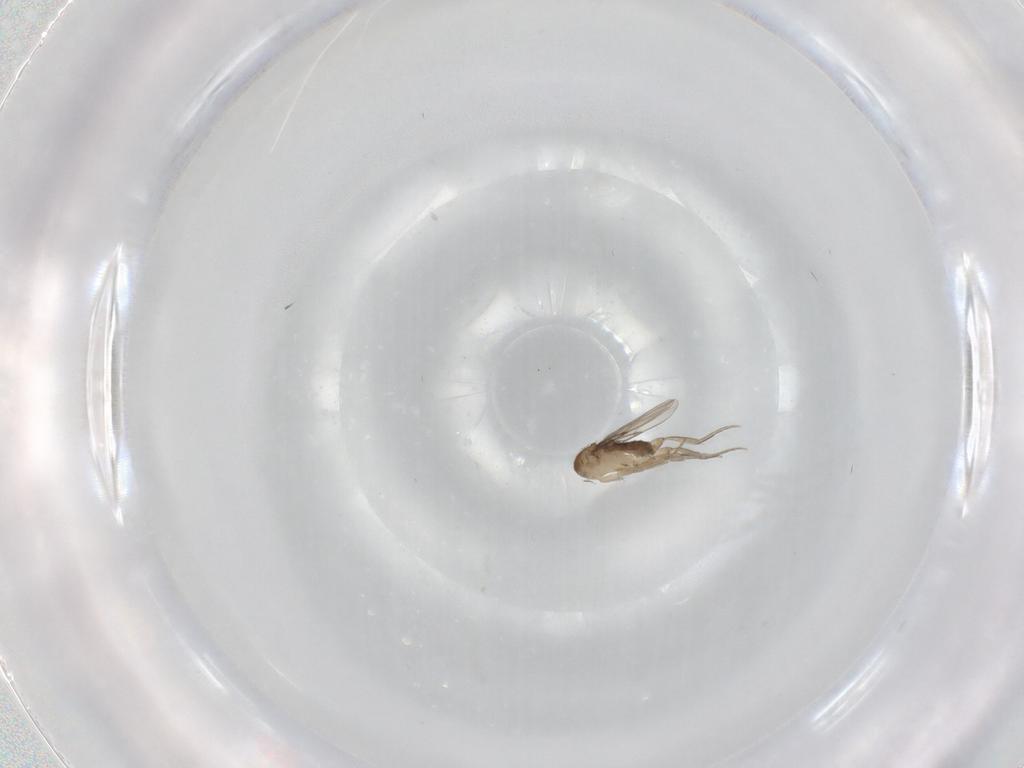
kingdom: Animalia
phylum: Arthropoda
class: Insecta
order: Diptera
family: Phoridae
